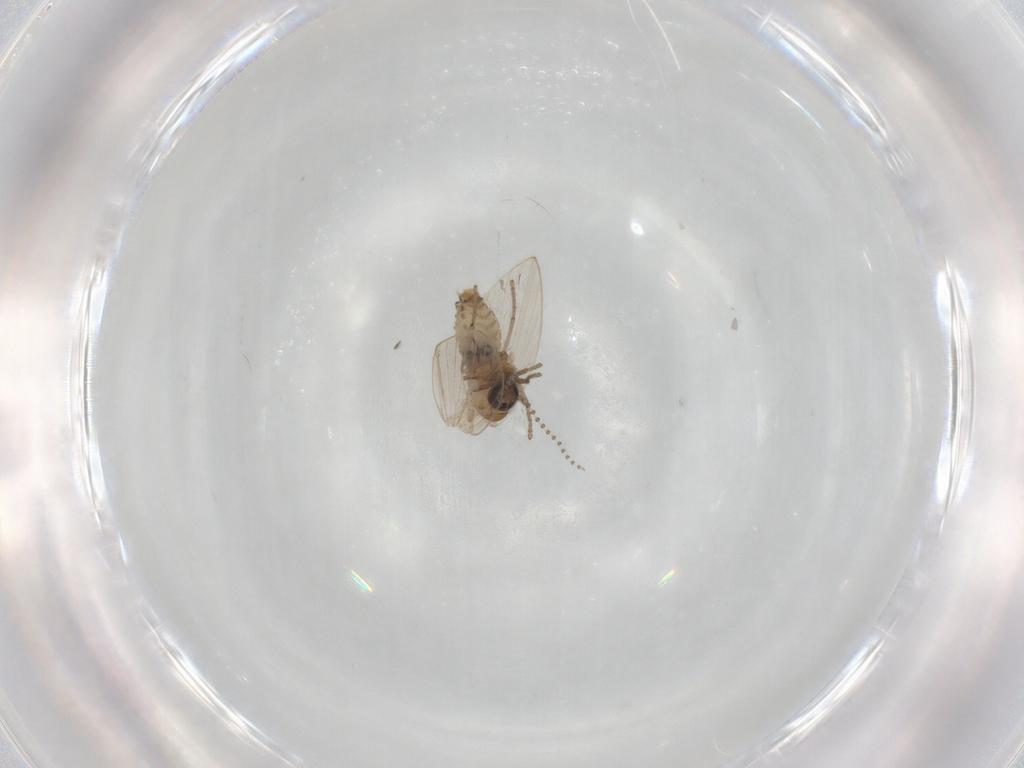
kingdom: Animalia
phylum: Arthropoda
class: Insecta
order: Diptera
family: Psychodidae
